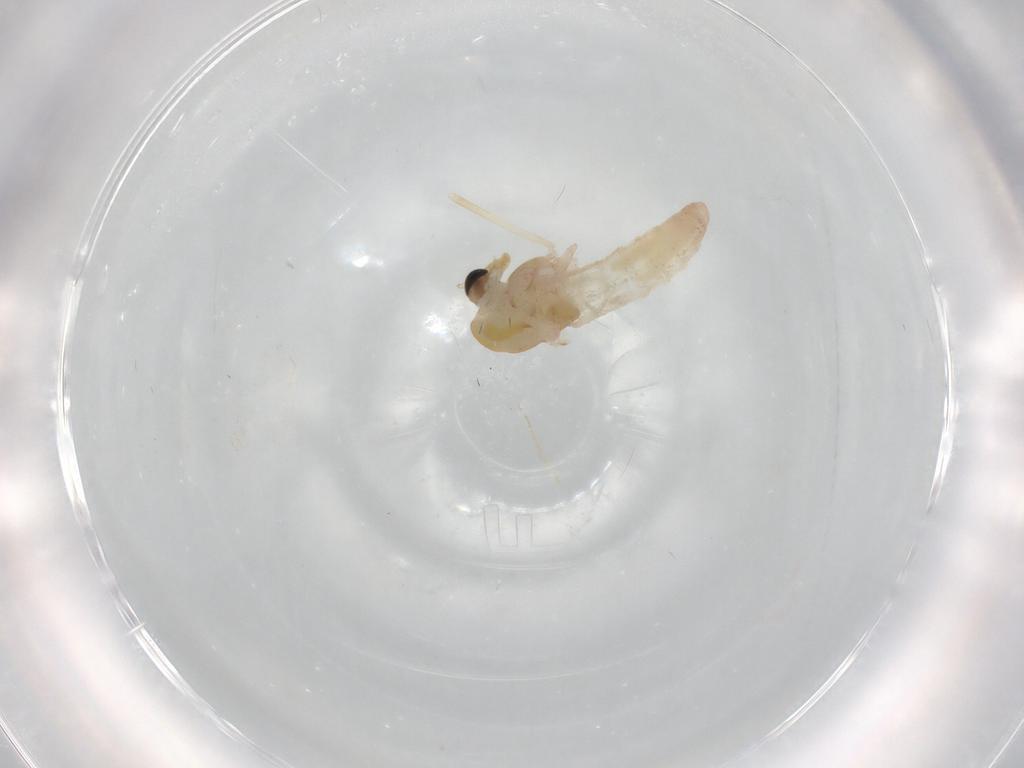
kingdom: Animalia
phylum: Arthropoda
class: Insecta
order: Diptera
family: Chironomidae
